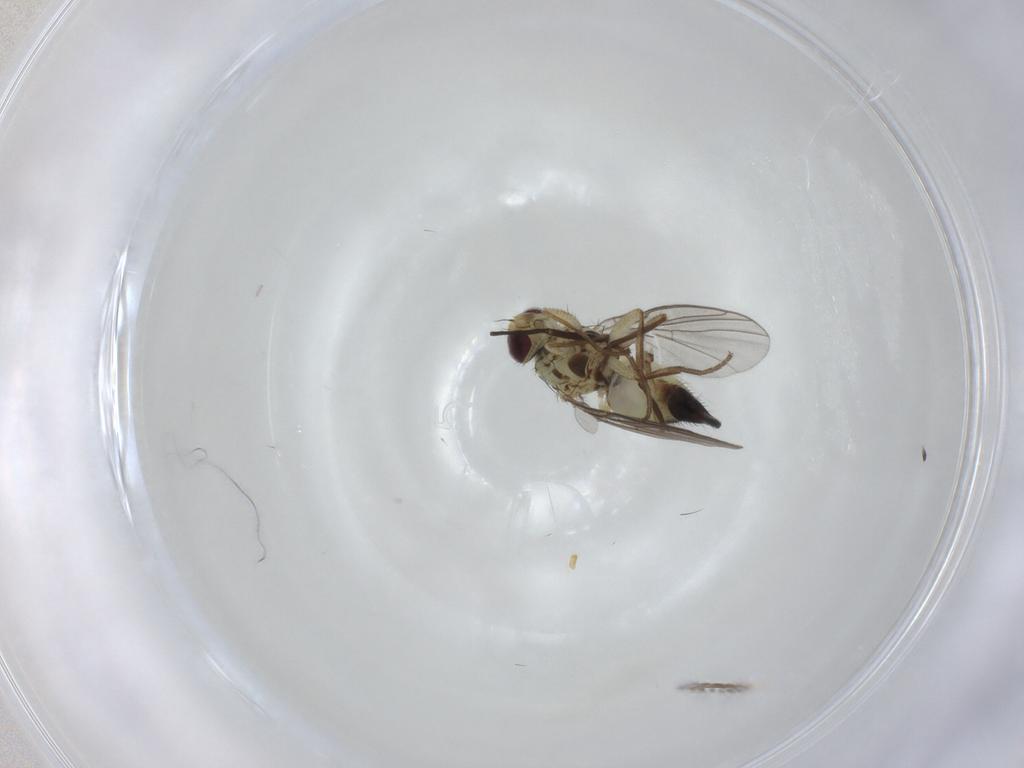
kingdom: Animalia
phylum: Arthropoda
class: Insecta
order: Diptera
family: Agromyzidae
